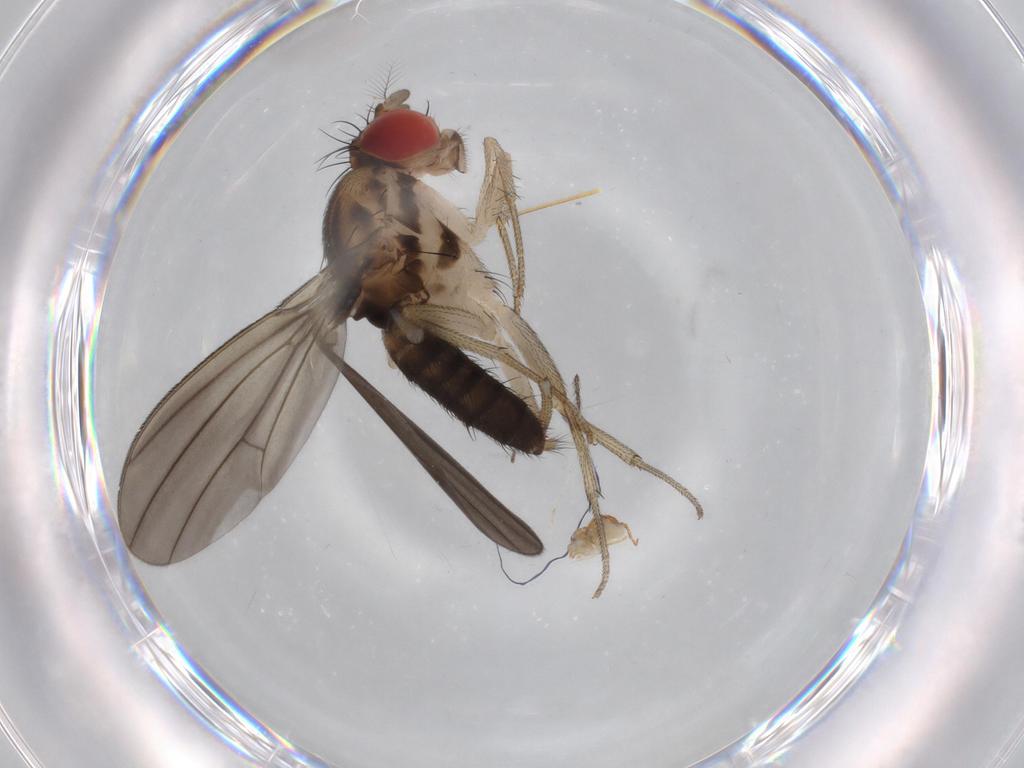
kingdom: Animalia
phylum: Arthropoda
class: Insecta
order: Diptera
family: Drosophilidae
